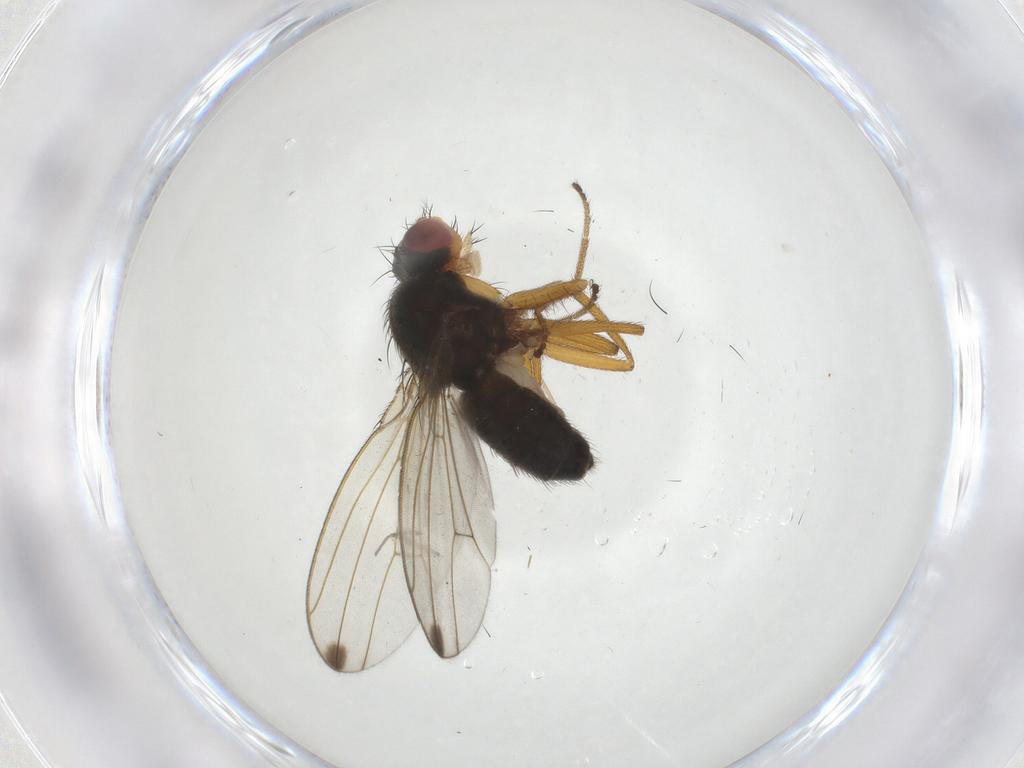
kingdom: Animalia
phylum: Arthropoda
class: Insecta
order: Diptera
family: Drosophilidae
